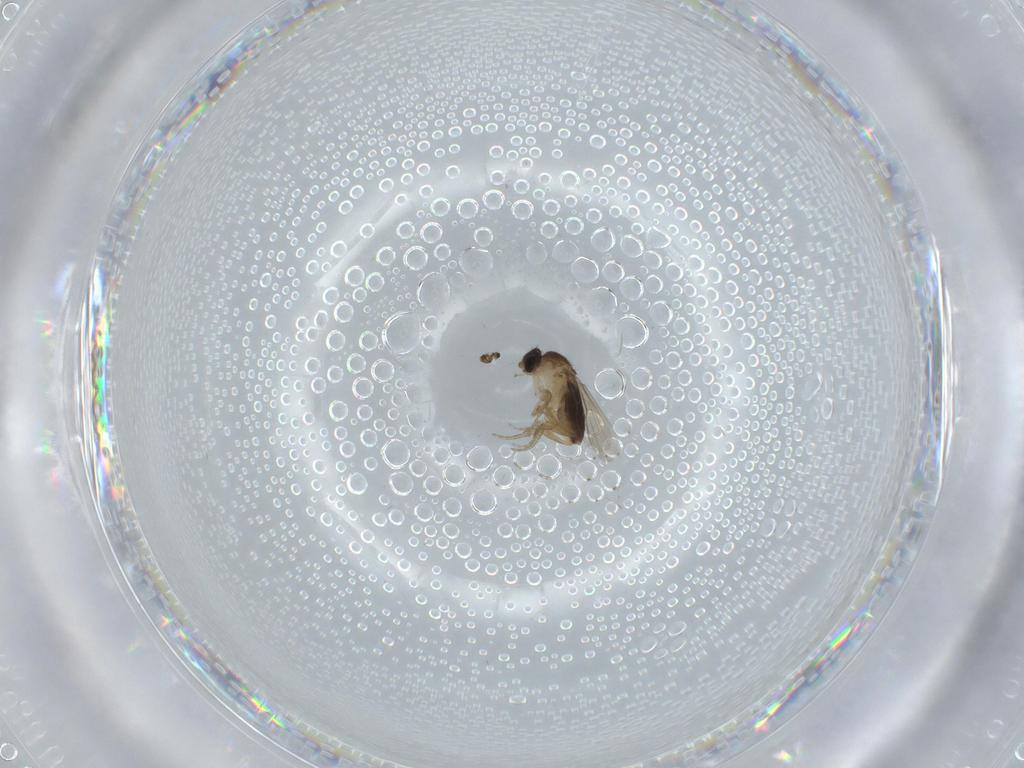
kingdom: Animalia
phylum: Arthropoda
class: Insecta
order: Diptera
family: Phoridae
